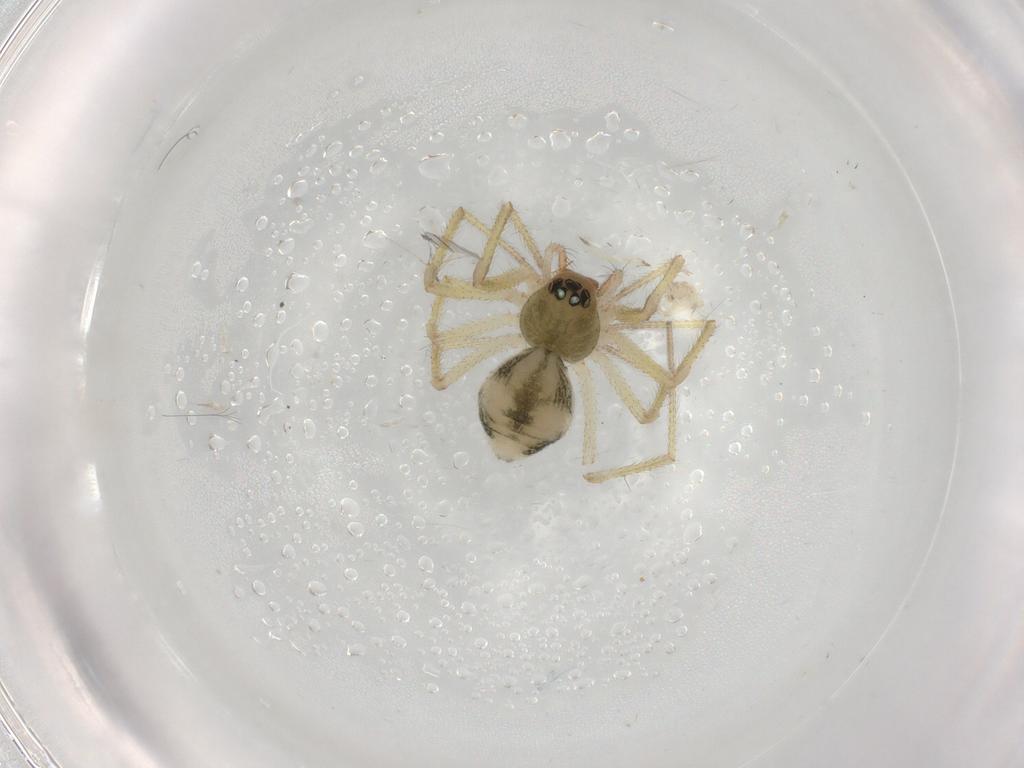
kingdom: Animalia
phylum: Arthropoda
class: Arachnida
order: Araneae
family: Linyphiidae
